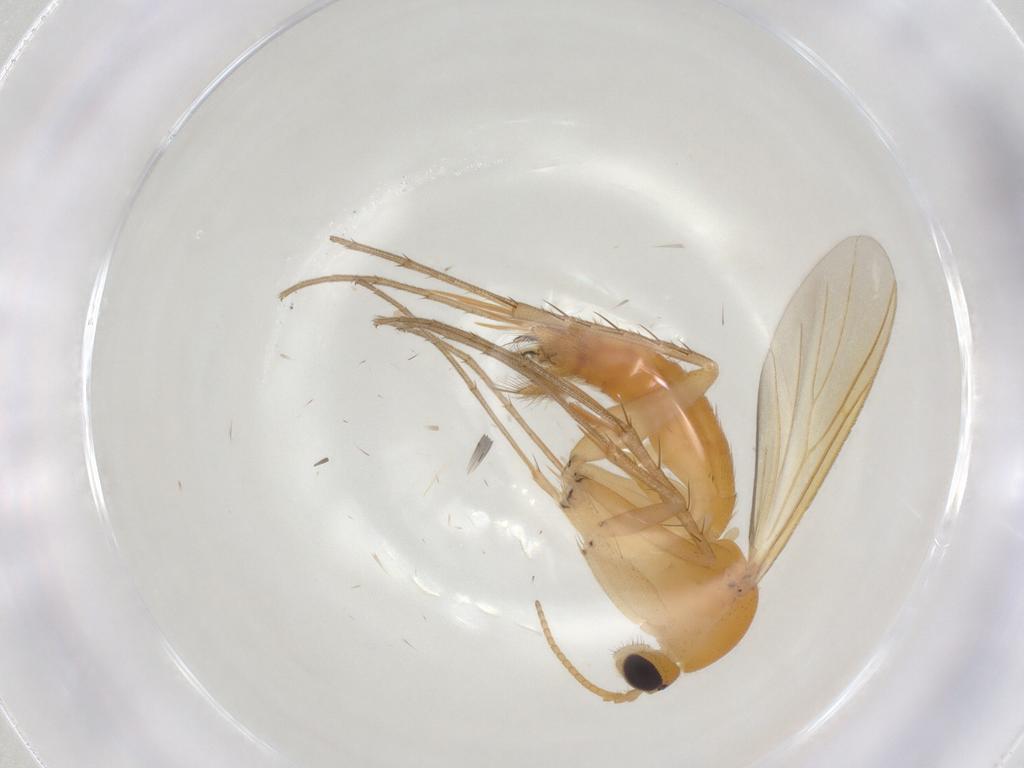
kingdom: Animalia
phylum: Arthropoda
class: Insecta
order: Diptera
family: Mycetophilidae
